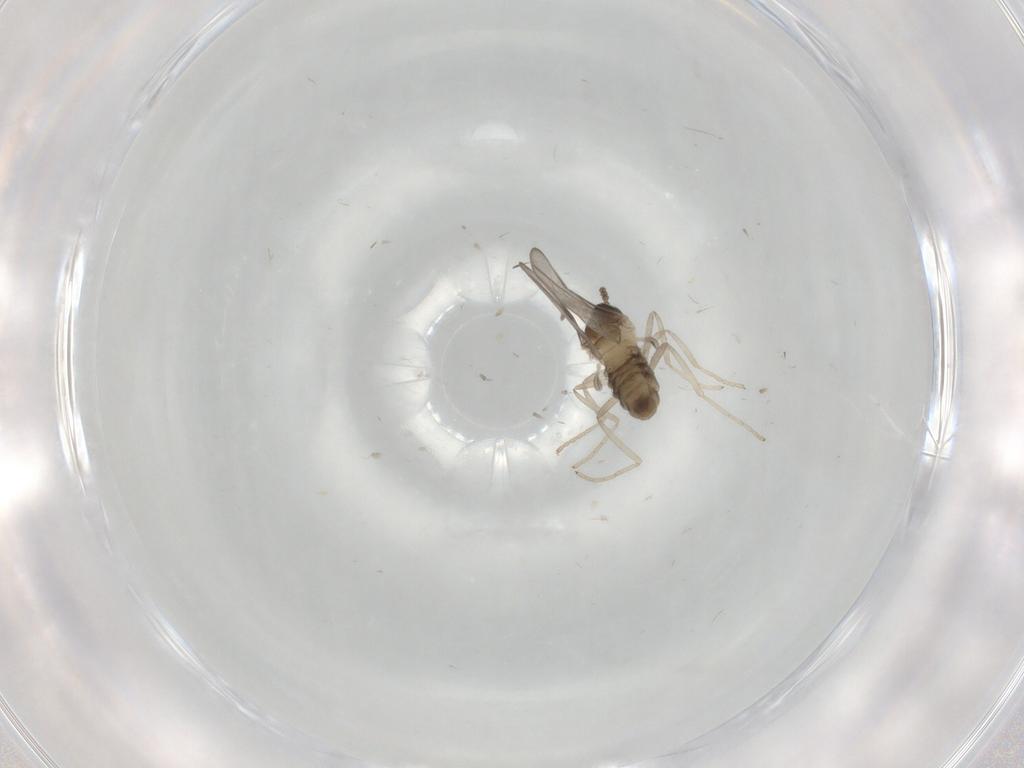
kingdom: Animalia
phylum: Arthropoda
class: Insecta
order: Diptera
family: Cecidomyiidae
